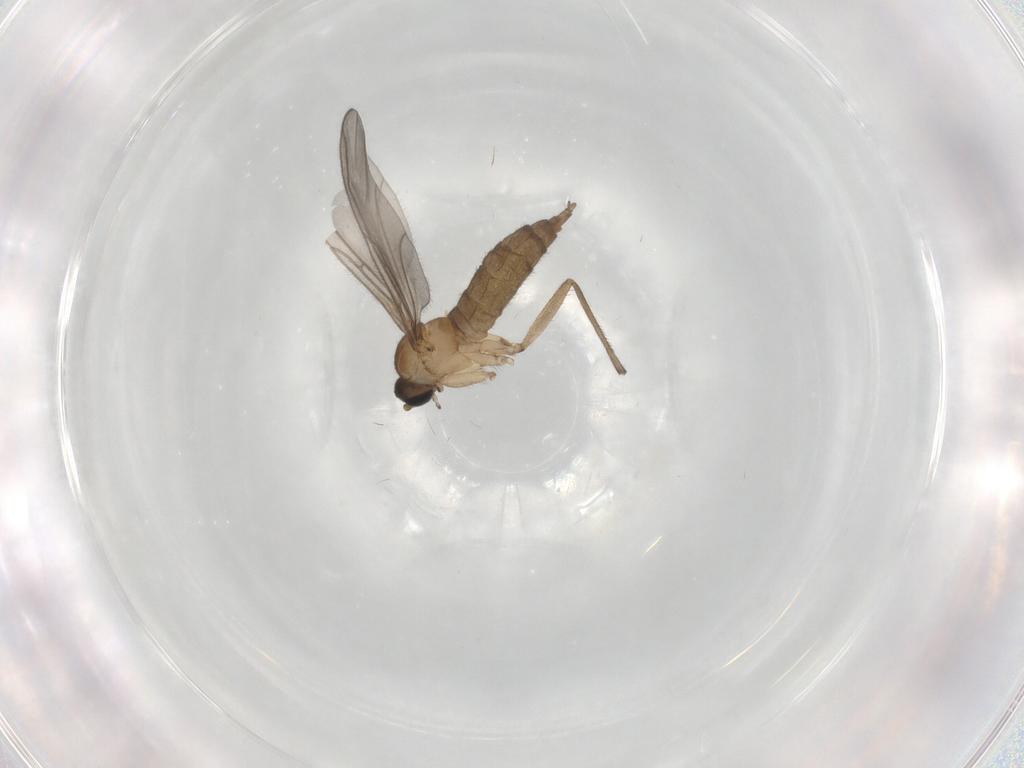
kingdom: Animalia
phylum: Arthropoda
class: Insecta
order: Diptera
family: Sciaridae
